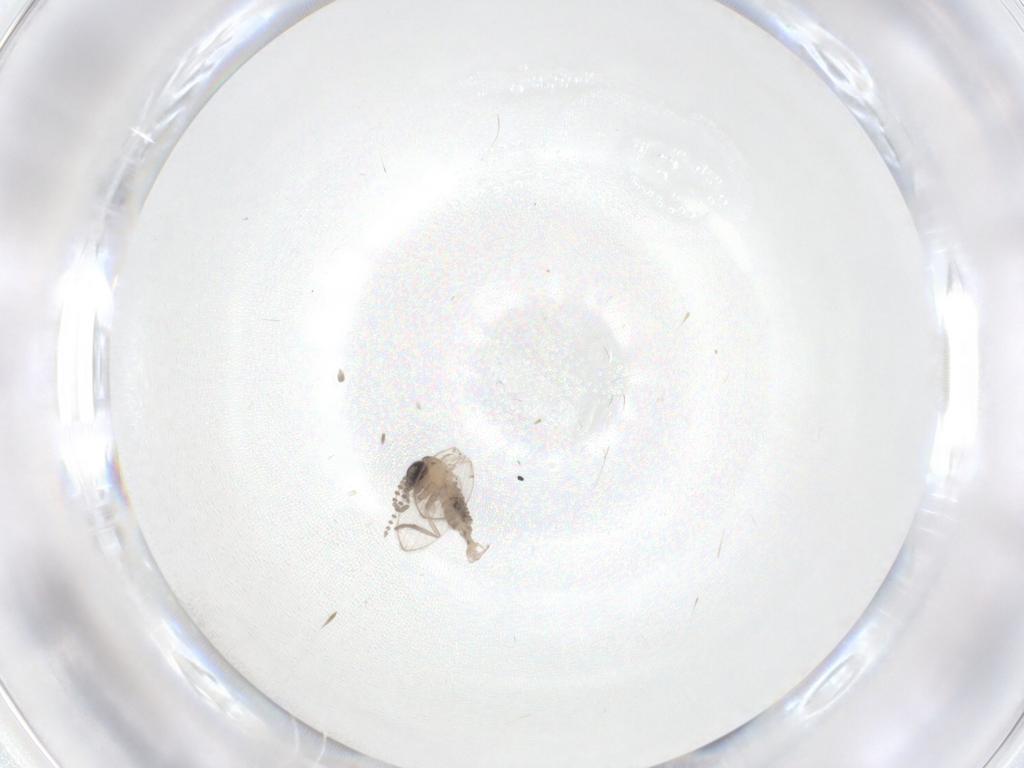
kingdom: Animalia
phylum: Arthropoda
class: Insecta
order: Diptera
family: Psychodidae
